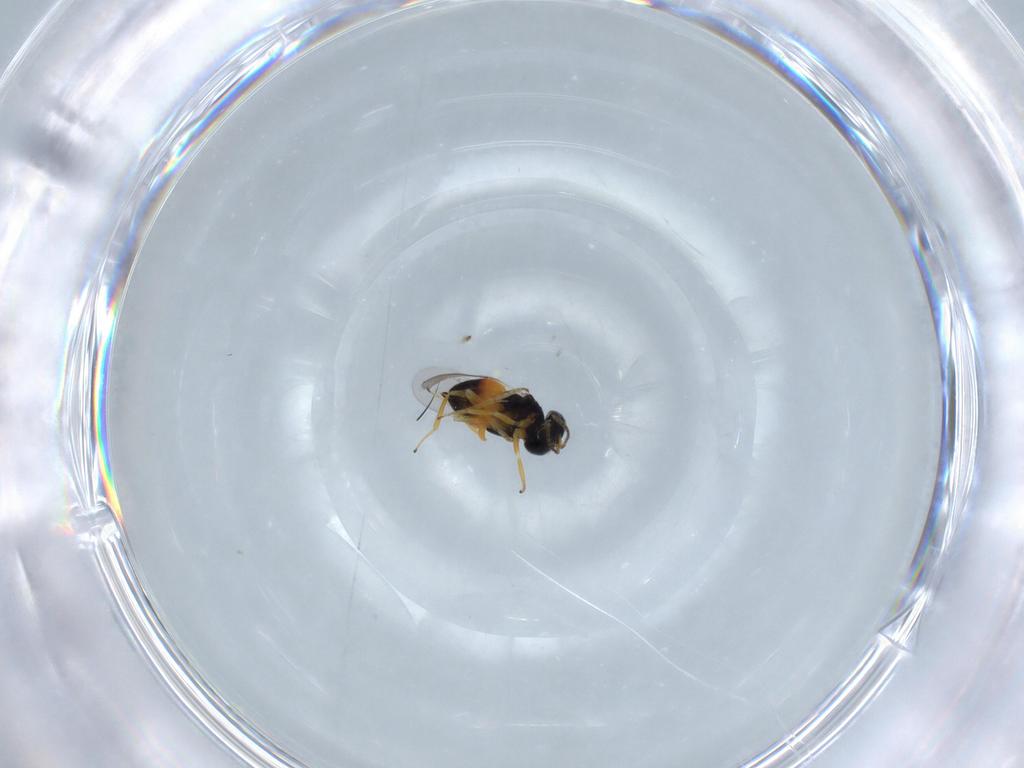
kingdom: Animalia
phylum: Arthropoda
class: Insecta
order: Hymenoptera
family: Encyrtidae
